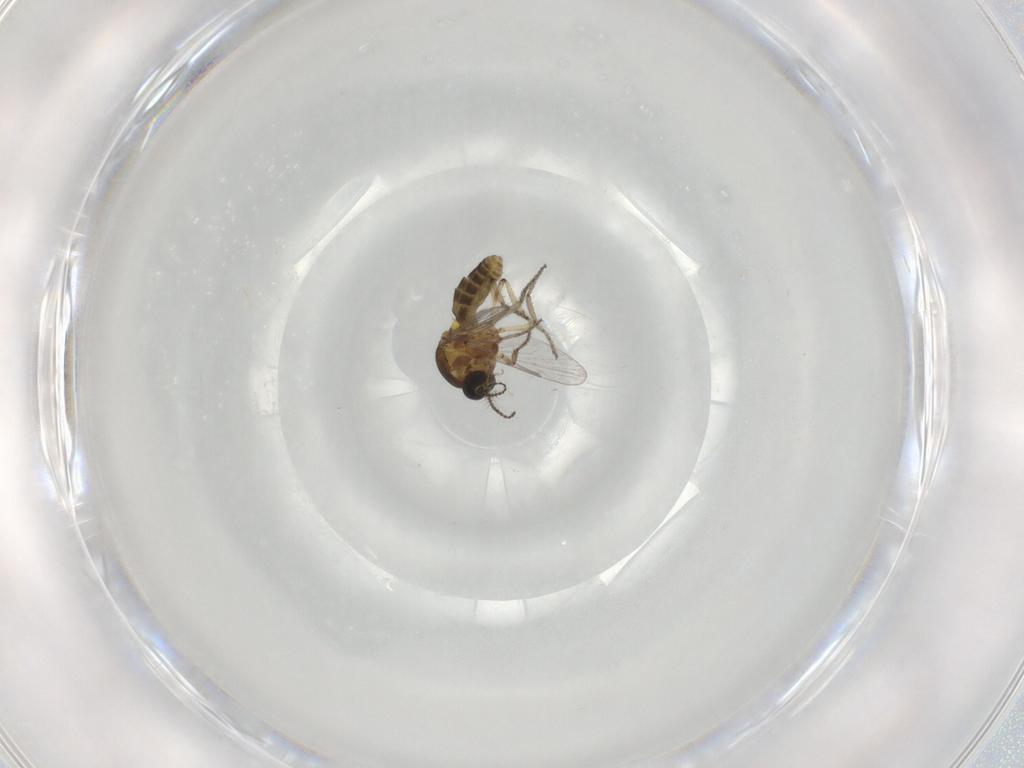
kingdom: Animalia
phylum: Arthropoda
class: Insecta
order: Diptera
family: Ceratopogonidae
